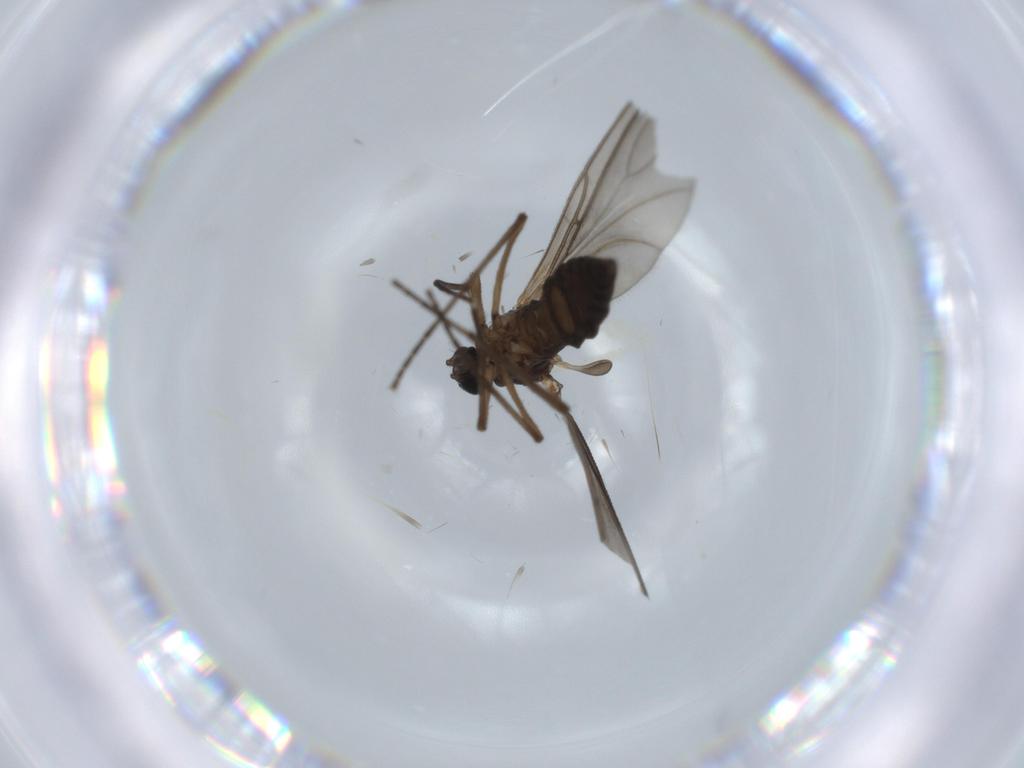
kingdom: Animalia
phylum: Arthropoda
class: Insecta
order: Diptera
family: Sciaridae
